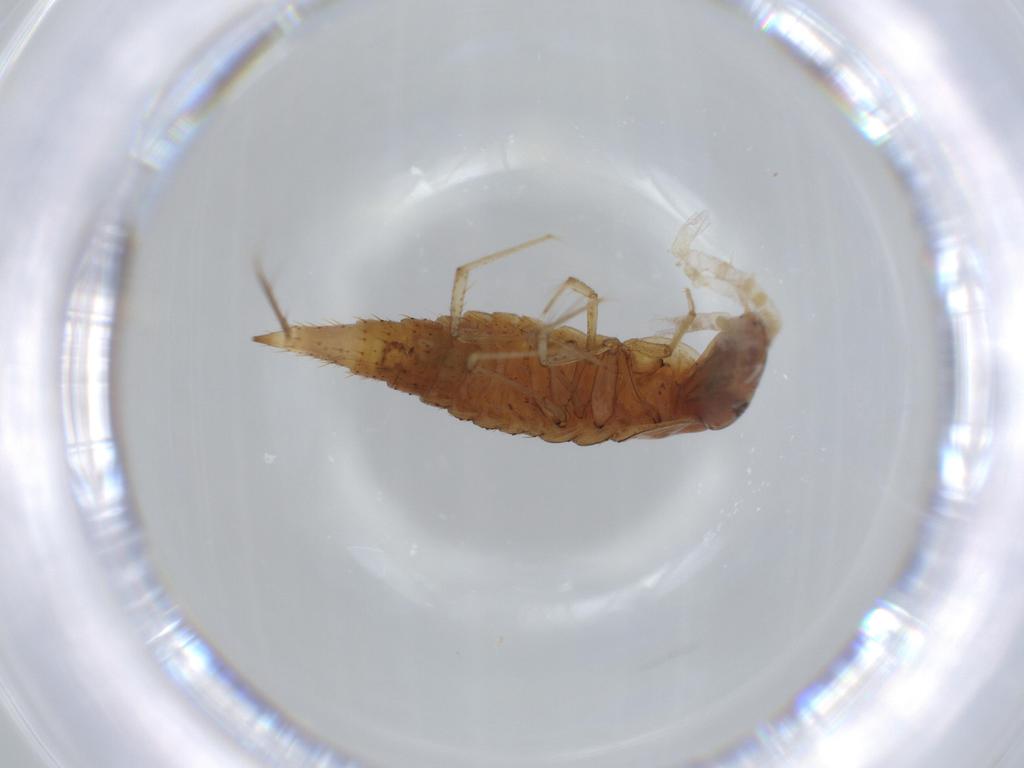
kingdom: Animalia
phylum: Arthropoda
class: Insecta
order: Coleoptera
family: Dytiscidae
